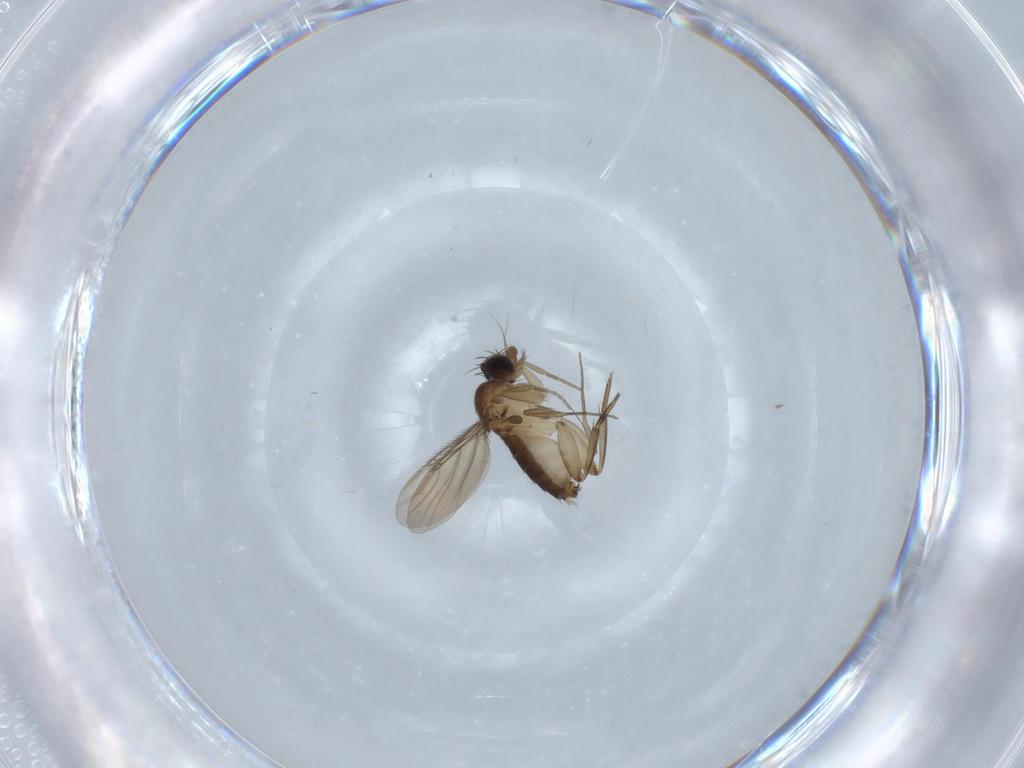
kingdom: Animalia
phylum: Arthropoda
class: Insecta
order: Diptera
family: Phoridae
